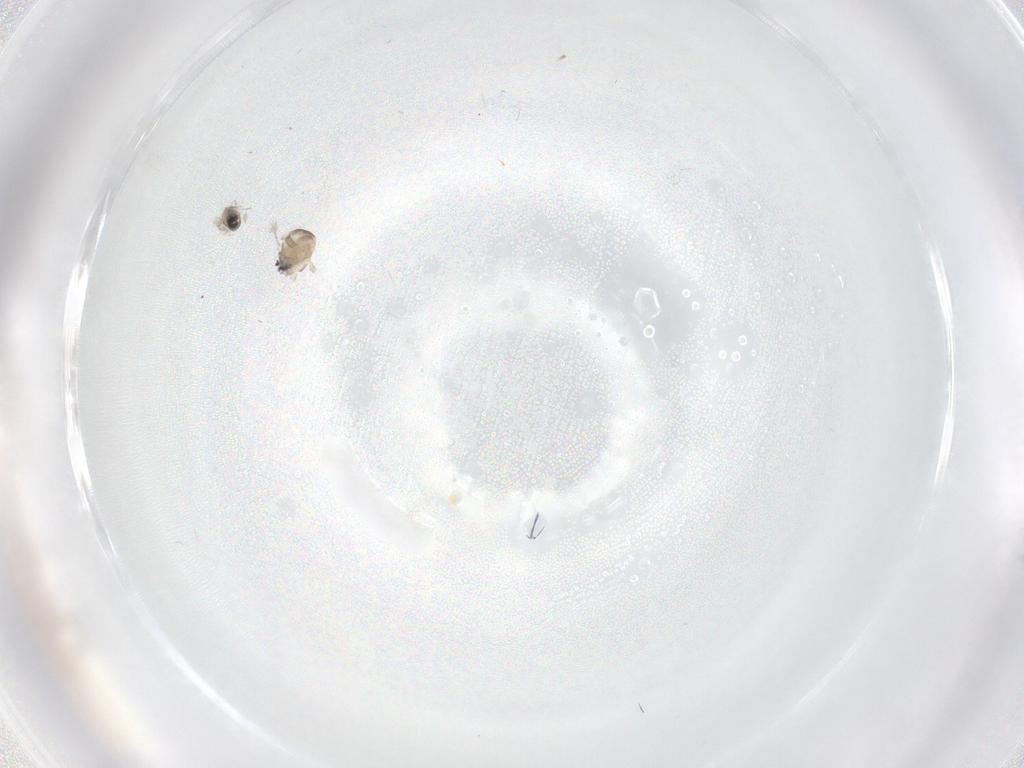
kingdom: Animalia
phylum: Arthropoda
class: Insecta
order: Diptera
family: Cecidomyiidae
